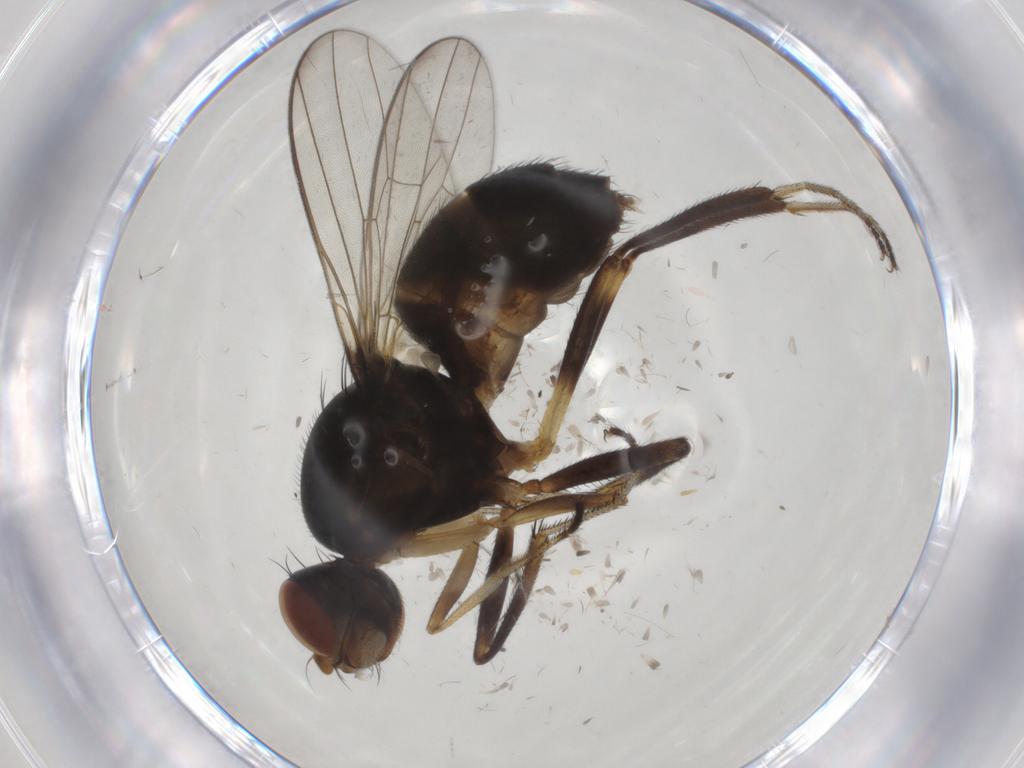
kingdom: Animalia
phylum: Arthropoda
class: Insecta
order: Diptera
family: Sepsidae
